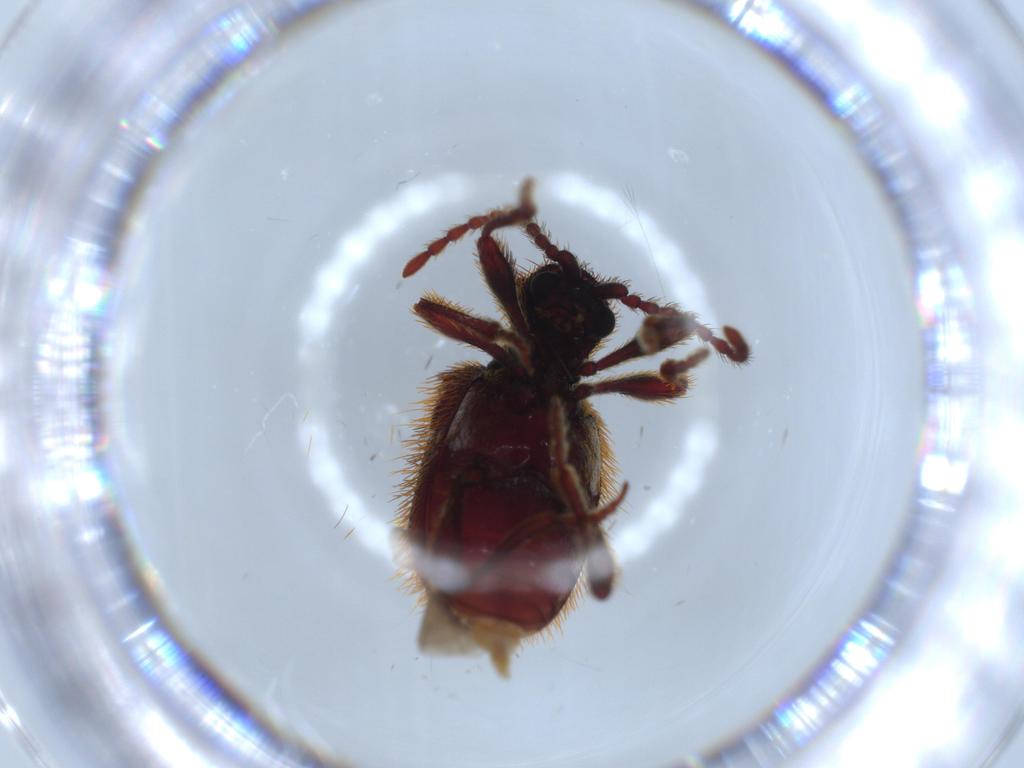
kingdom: Animalia
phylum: Arthropoda
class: Insecta
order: Coleoptera
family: Ptinidae
